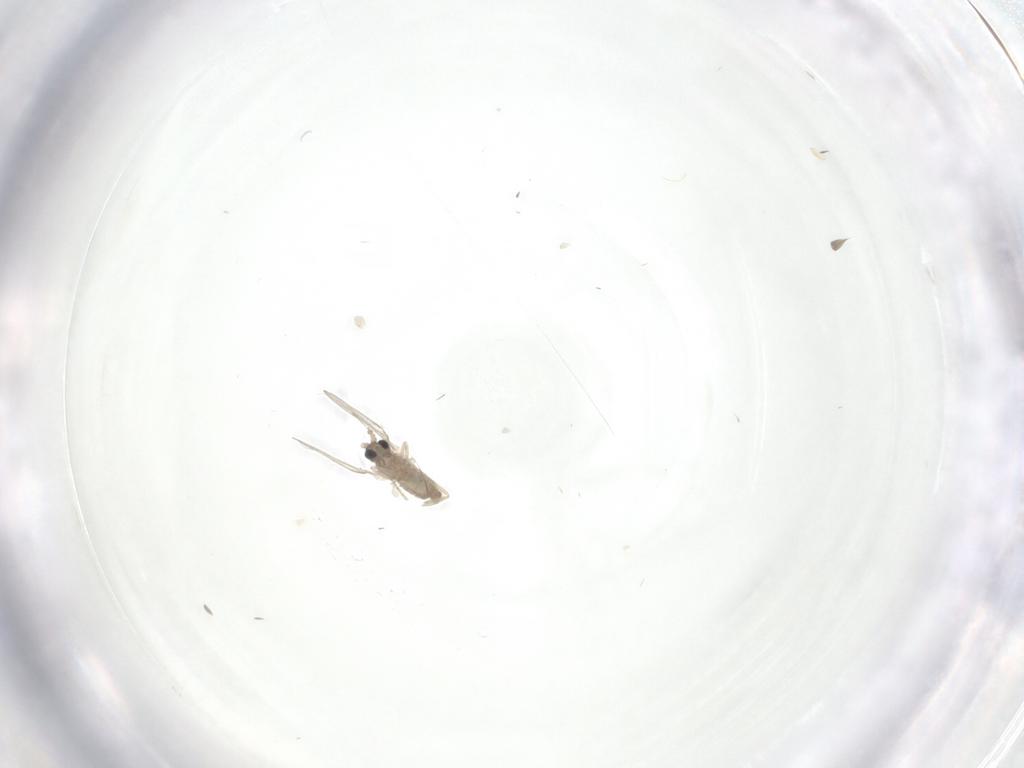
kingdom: Animalia
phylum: Arthropoda
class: Insecta
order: Diptera
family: Cecidomyiidae
